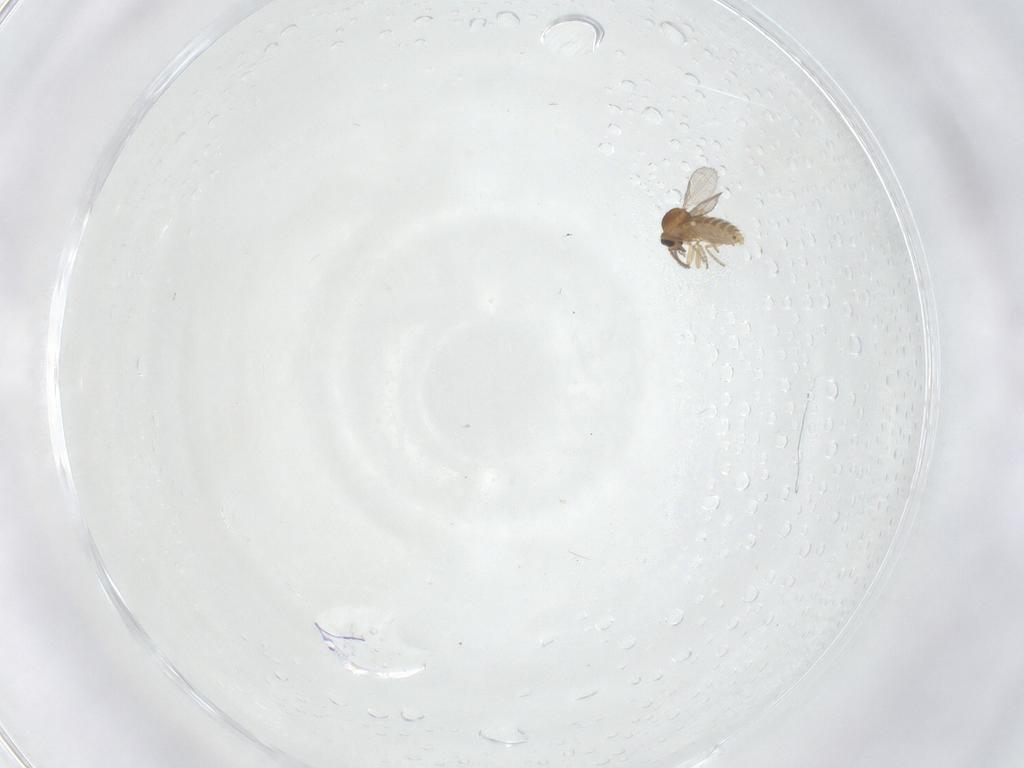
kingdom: Animalia
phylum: Arthropoda
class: Insecta
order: Diptera
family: Ceratopogonidae
